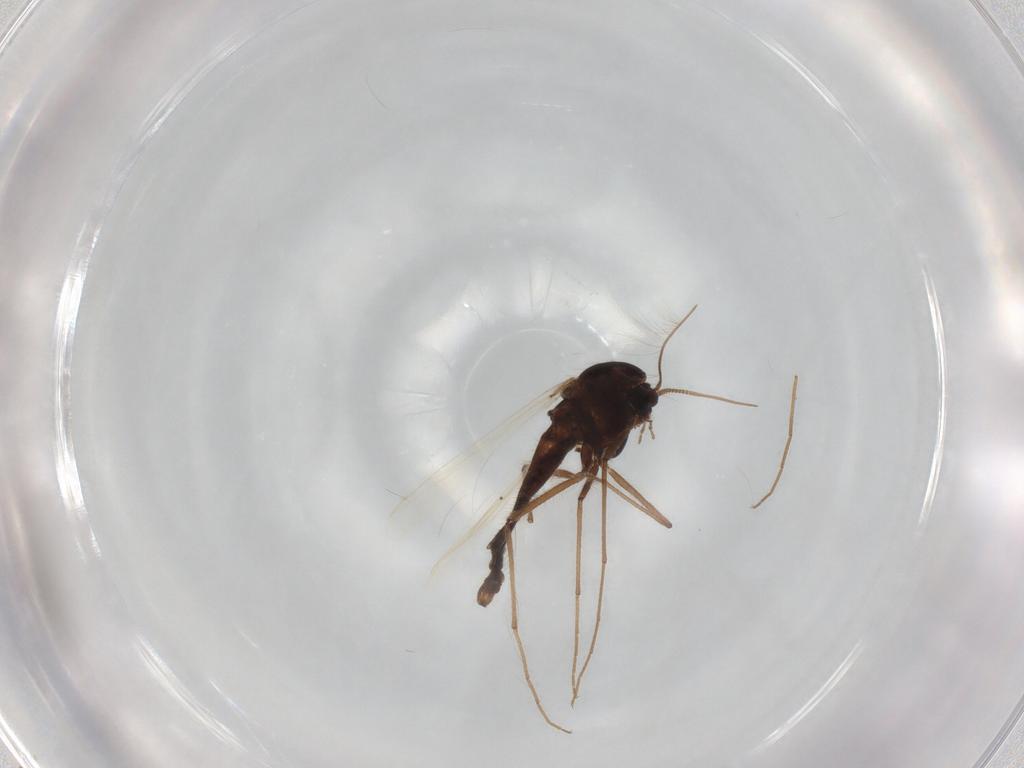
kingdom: Animalia
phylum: Arthropoda
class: Insecta
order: Diptera
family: Chironomidae
